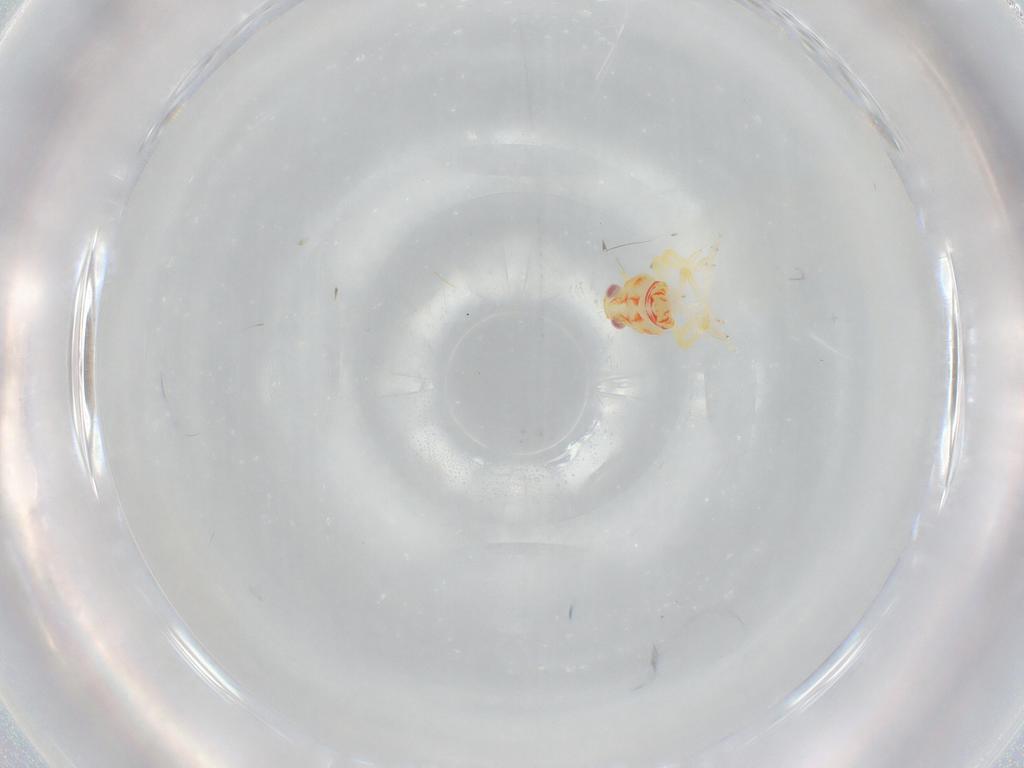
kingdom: Animalia
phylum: Arthropoda
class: Insecta
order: Hemiptera
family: Tropiduchidae
